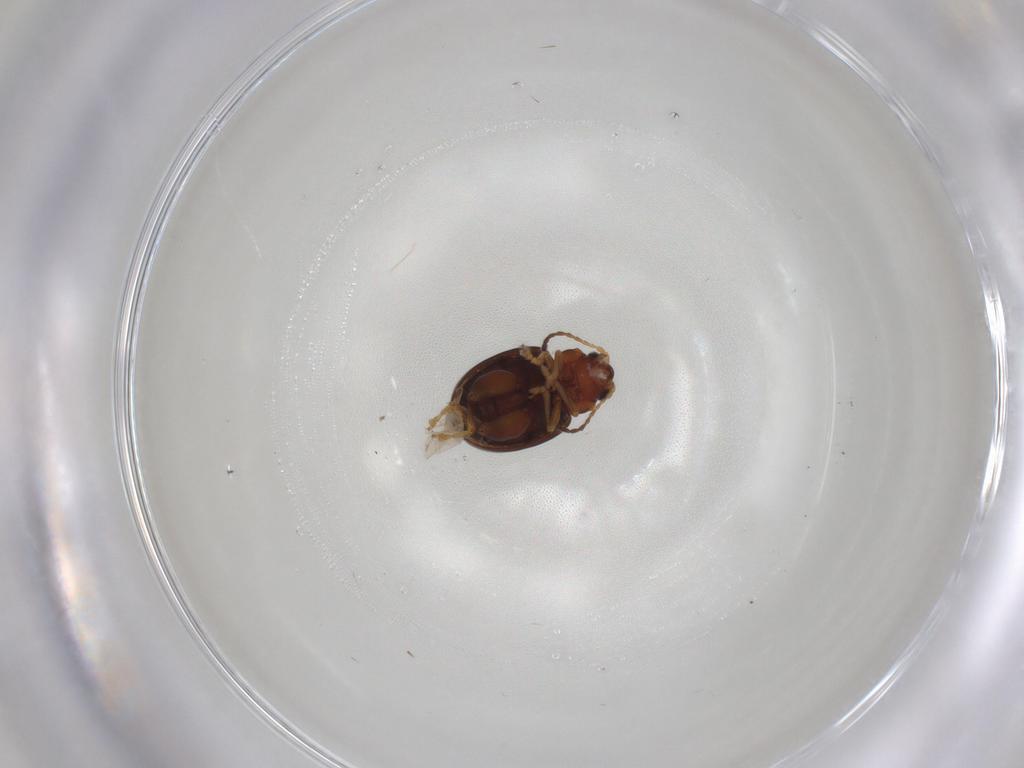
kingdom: Animalia
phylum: Arthropoda
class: Insecta
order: Coleoptera
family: Chrysomelidae
